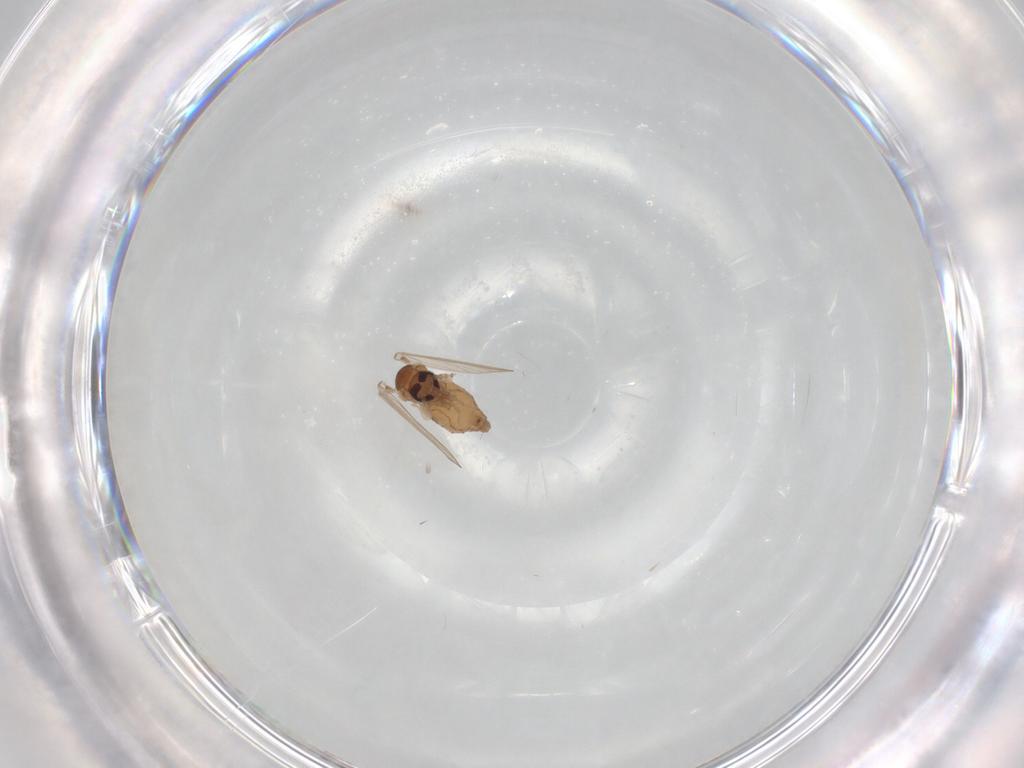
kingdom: Animalia
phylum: Arthropoda
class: Insecta
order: Diptera
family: Cecidomyiidae
